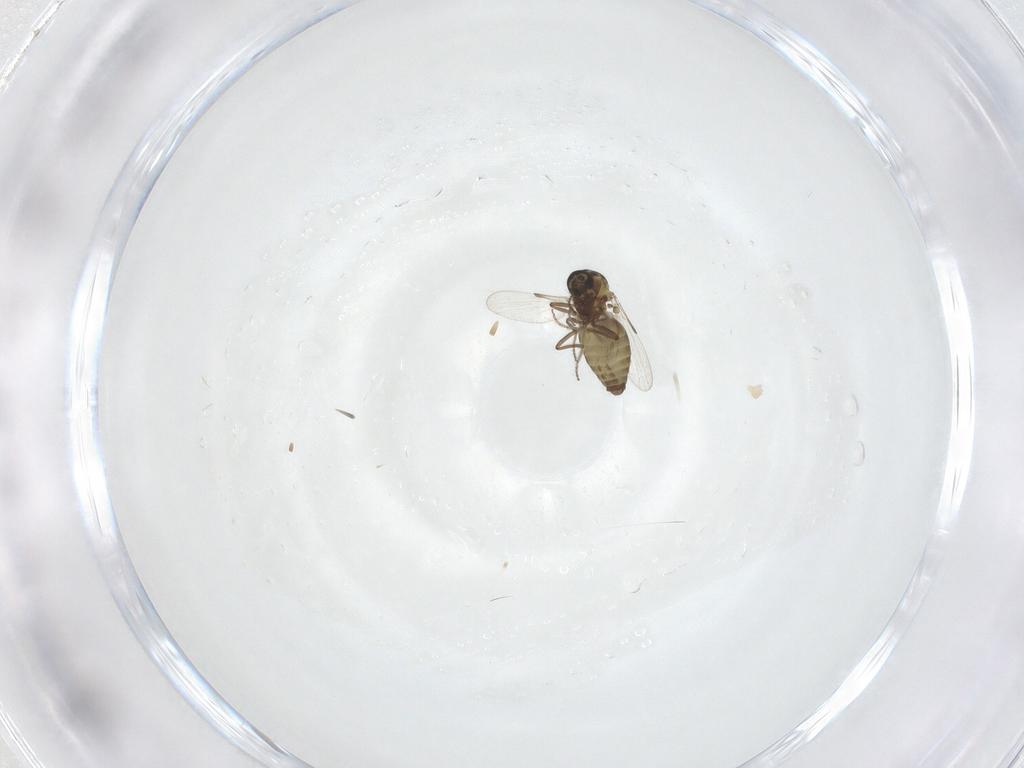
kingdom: Animalia
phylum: Arthropoda
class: Insecta
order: Diptera
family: Ceratopogonidae
